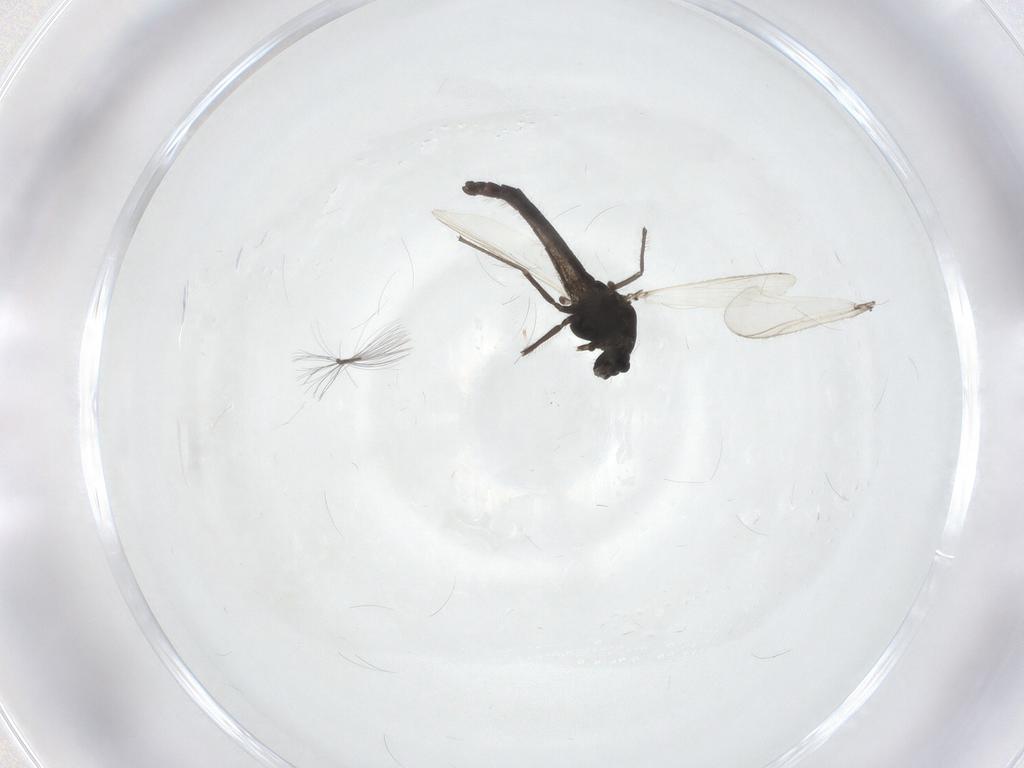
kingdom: Animalia
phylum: Arthropoda
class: Insecta
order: Diptera
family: Chironomidae
